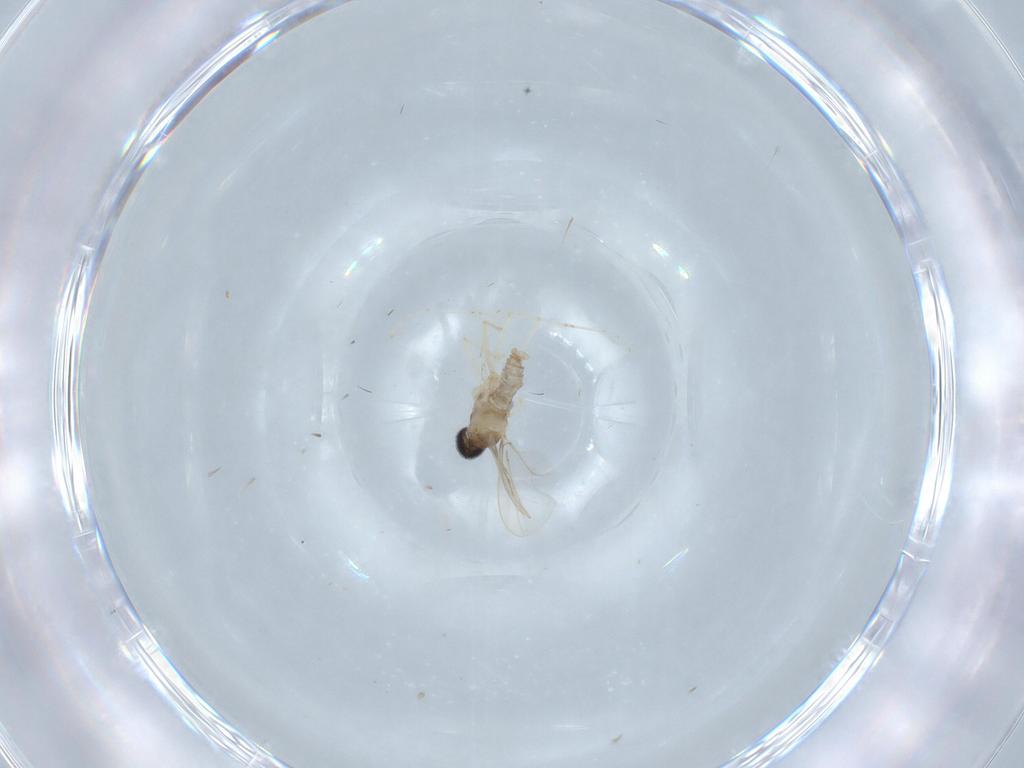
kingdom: Animalia
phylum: Arthropoda
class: Insecta
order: Diptera
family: Cecidomyiidae
